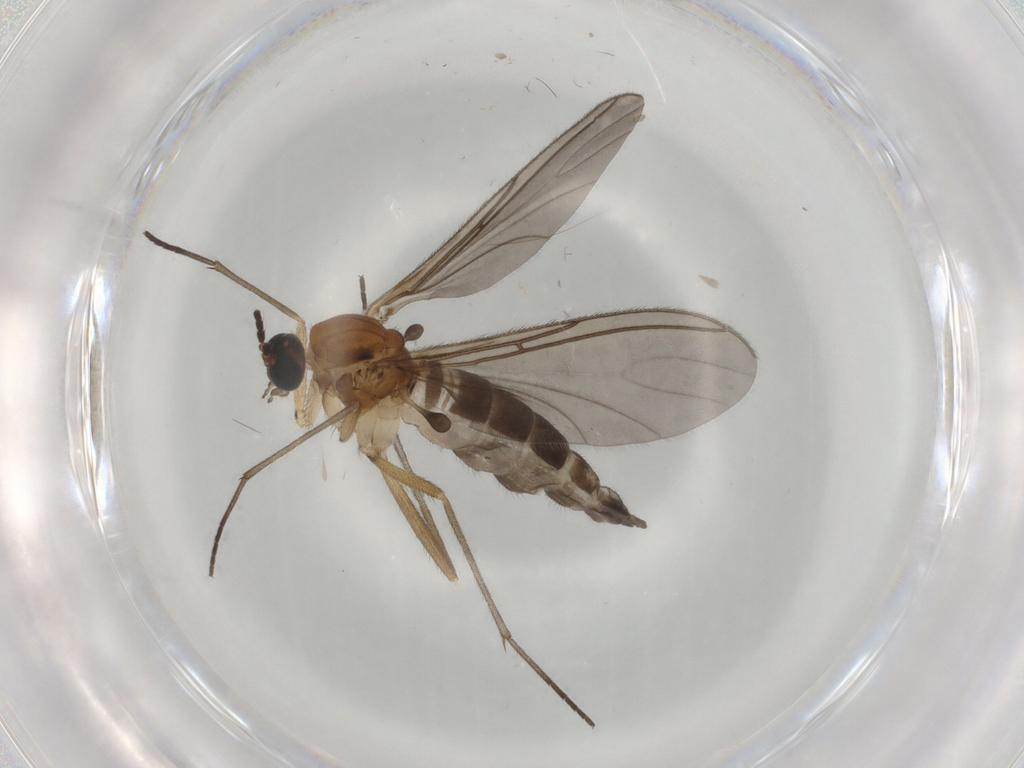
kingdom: Animalia
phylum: Arthropoda
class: Insecta
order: Diptera
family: Sciaridae
